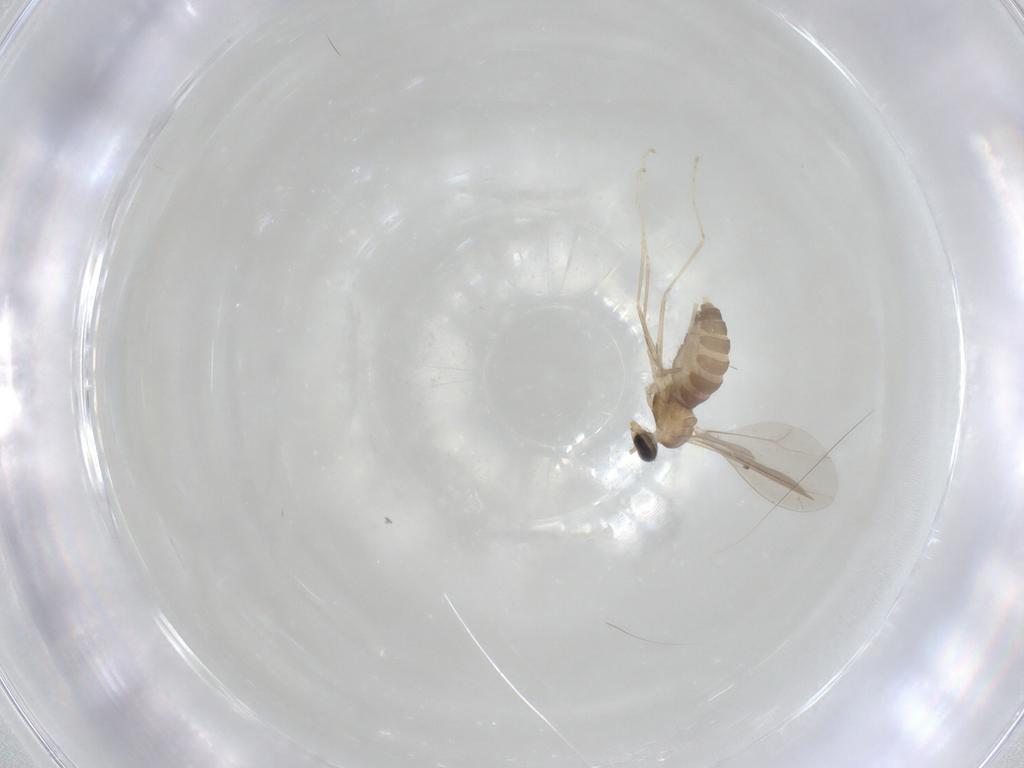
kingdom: Animalia
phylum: Arthropoda
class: Insecta
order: Diptera
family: Cecidomyiidae
